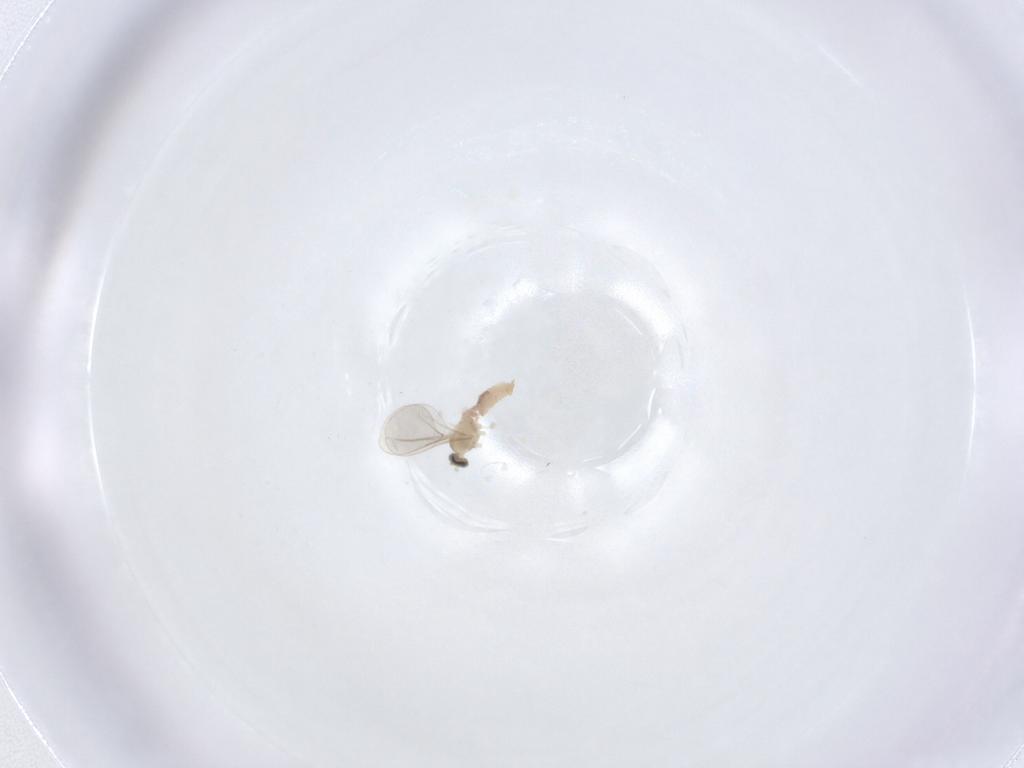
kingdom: Animalia
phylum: Arthropoda
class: Insecta
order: Diptera
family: Cecidomyiidae
